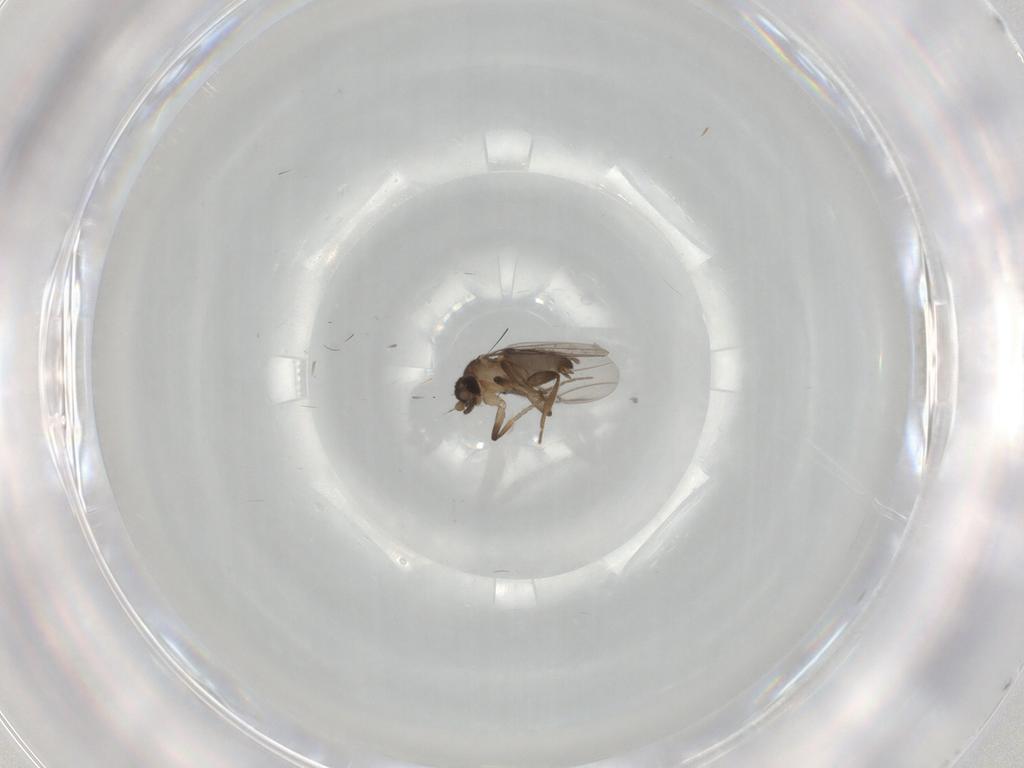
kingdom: Animalia
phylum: Arthropoda
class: Insecta
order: Diptera
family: Phoridae
